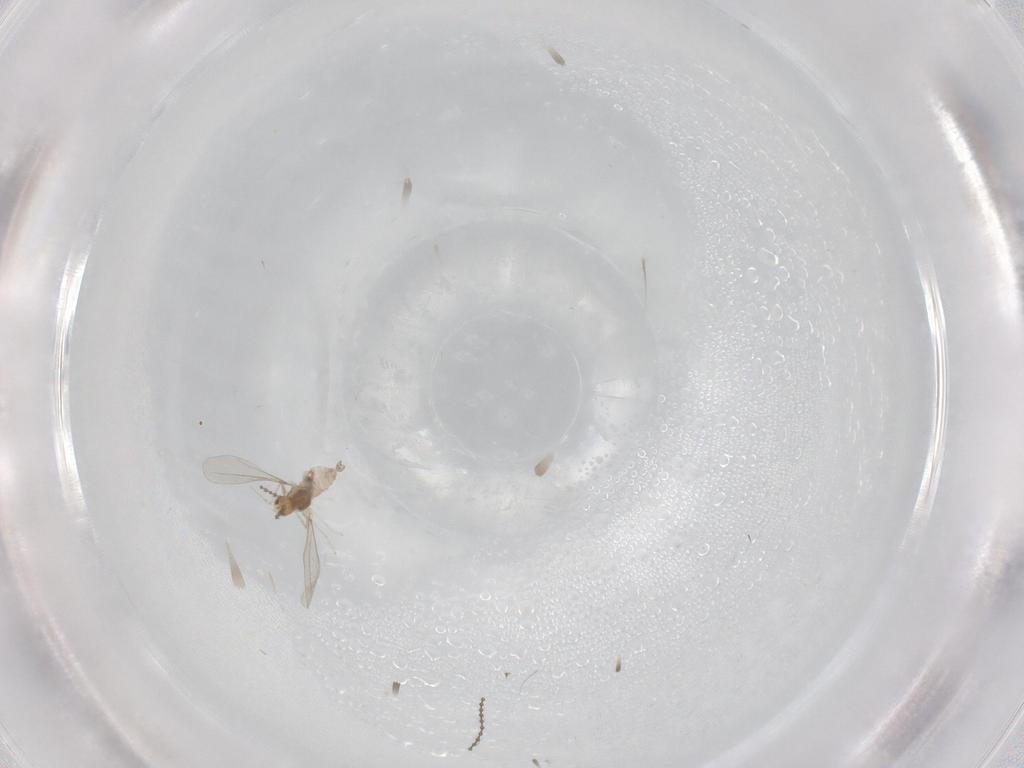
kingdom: Animalia
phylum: Arthropoda
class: Insecta
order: Diptera
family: Cecidomyiidae
